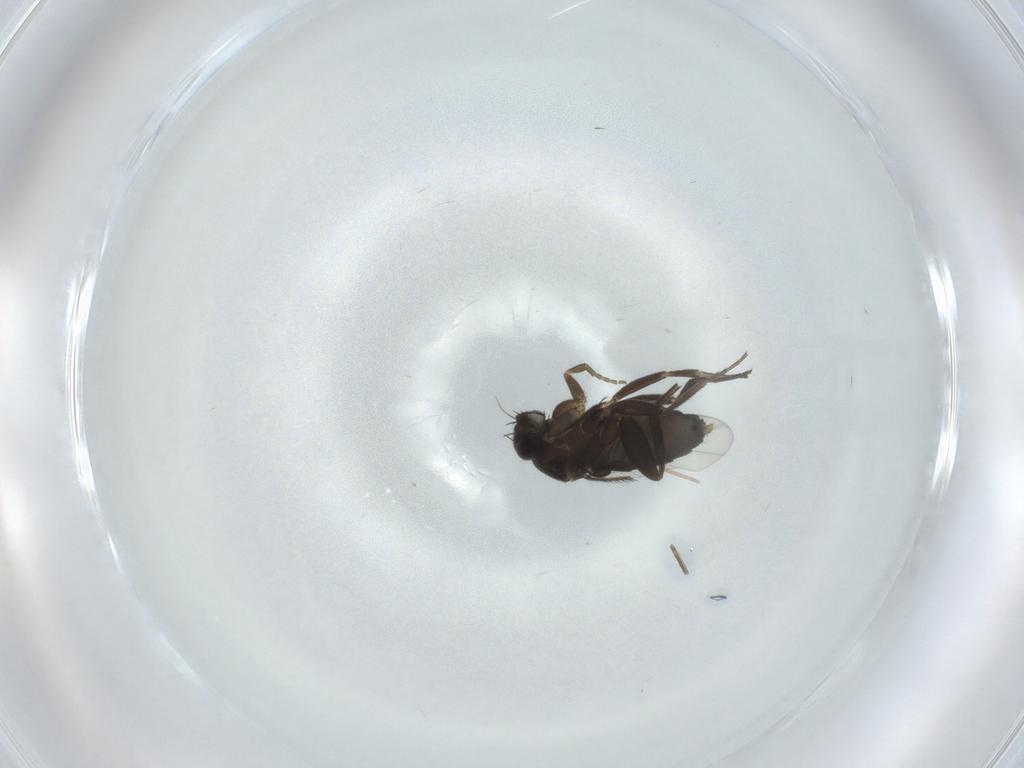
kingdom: Animalia
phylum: Arthropoda
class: Insecta
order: Diptera
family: Phoridae
